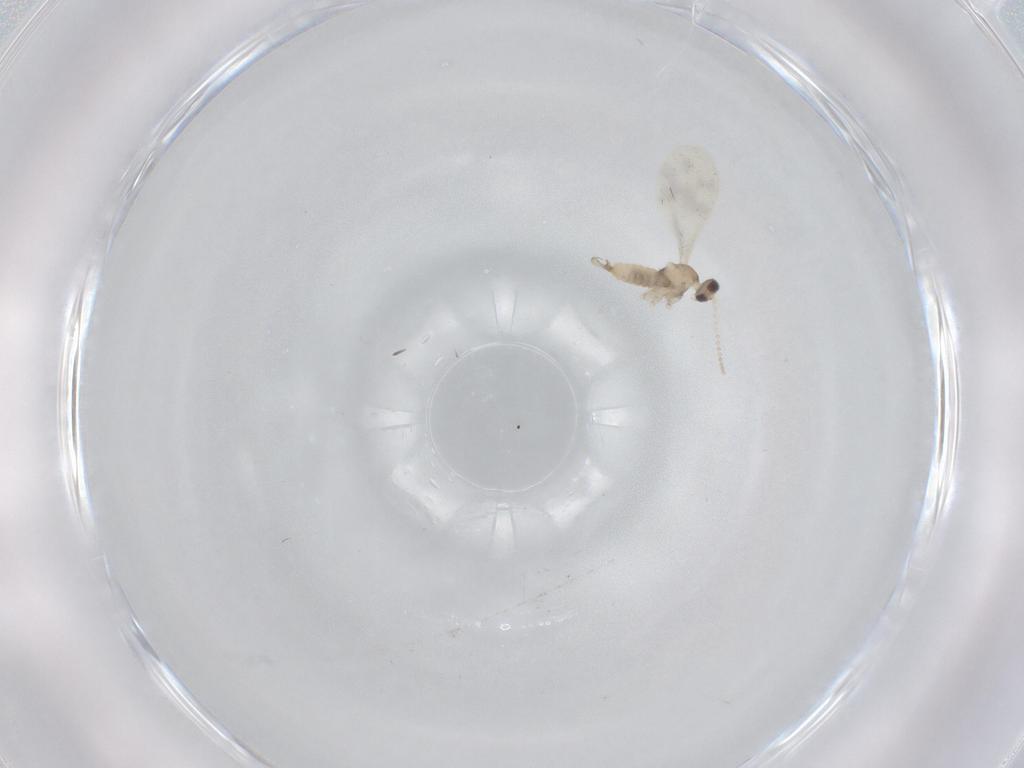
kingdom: Animalia
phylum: Arthropoda
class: Insecta
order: Diptera
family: Cecidomyiidae
